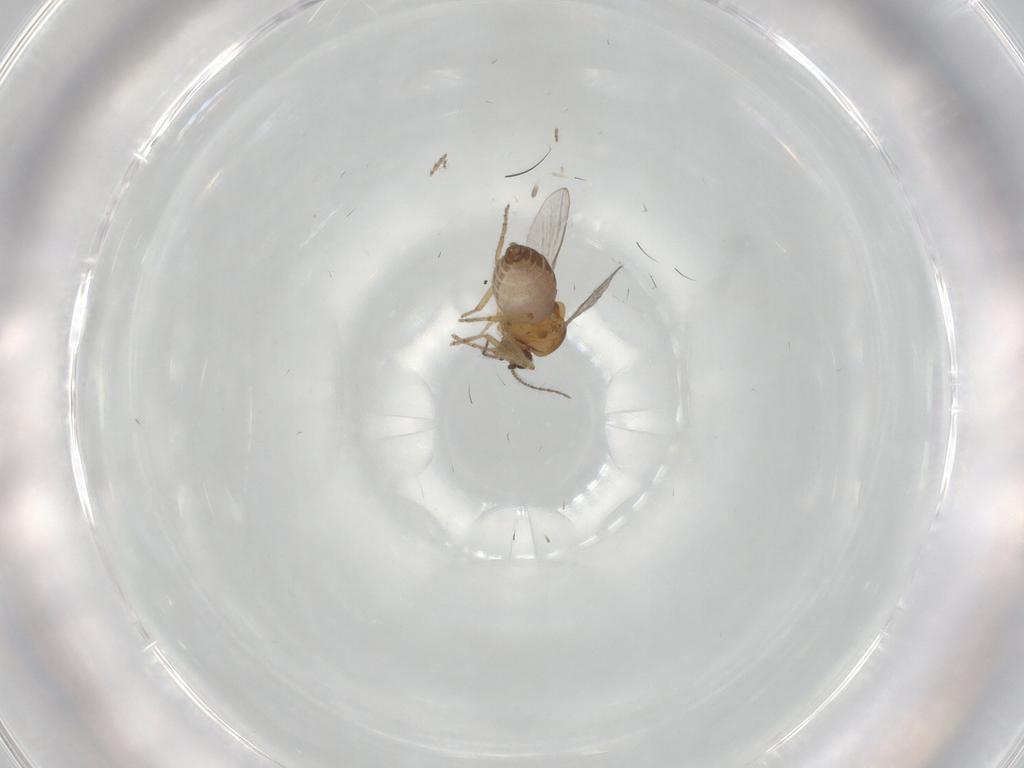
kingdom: Animalia
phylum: Arthropoda
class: Insecta
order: Diptera
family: Ceratopogonidae
